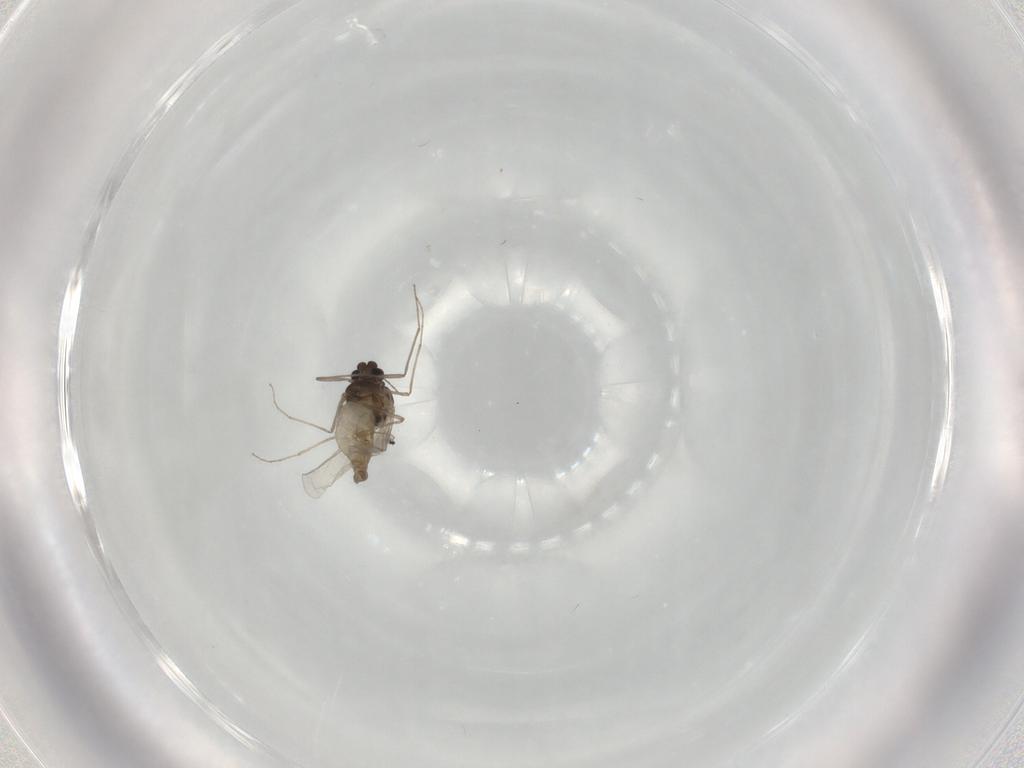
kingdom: Animalia
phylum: Arthropoda
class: Insecta
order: Diptera
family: Chironomidae
